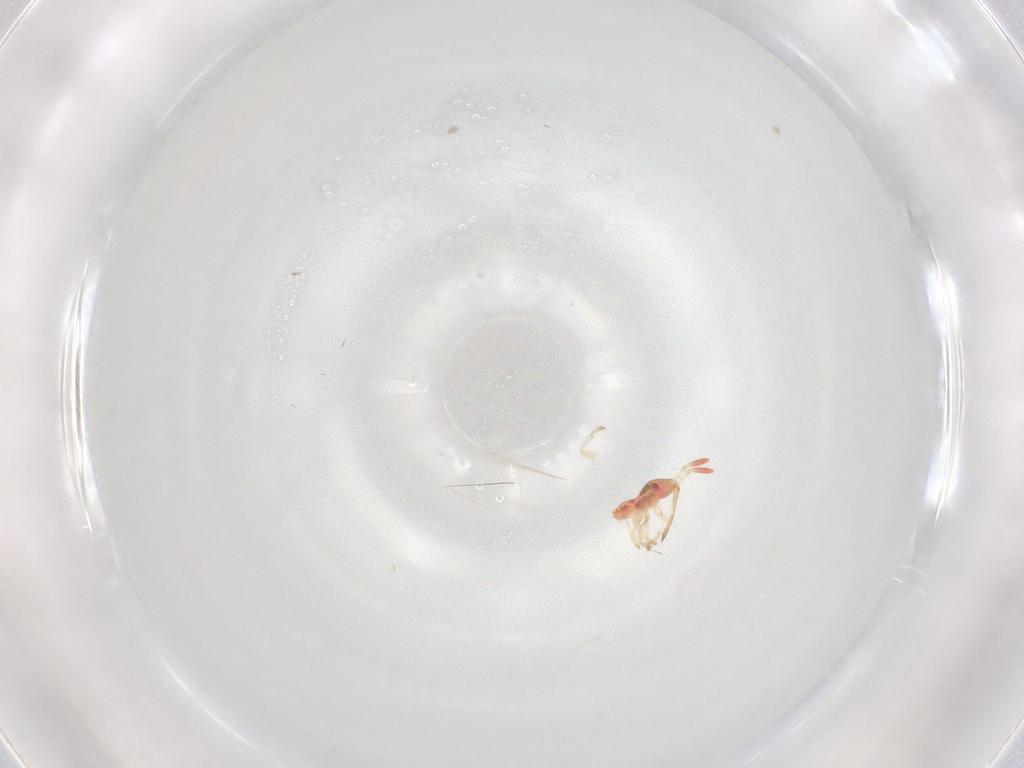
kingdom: Animalia
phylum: Arthropoda
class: Insecta
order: Hemiptera
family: Lygaeidae
